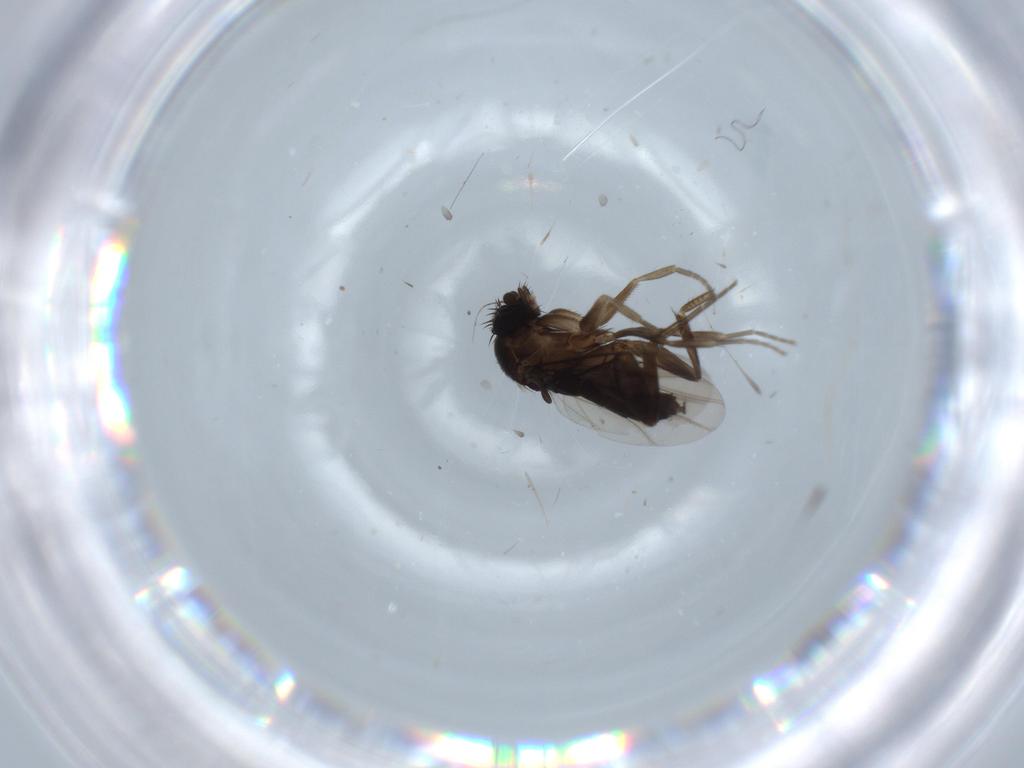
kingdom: Animalia
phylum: Arthropoda
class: Insecta
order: Diptera
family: Phoridae
